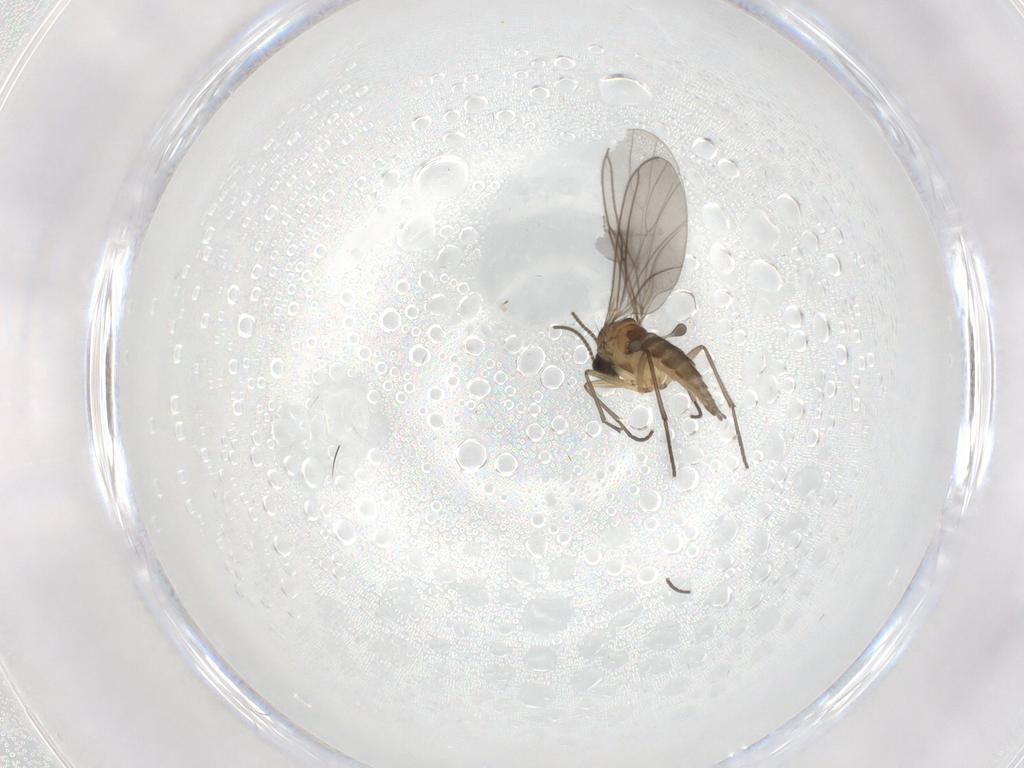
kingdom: Animalia
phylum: Arthropoda
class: Insecta
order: Diptera
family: Sciaridae
